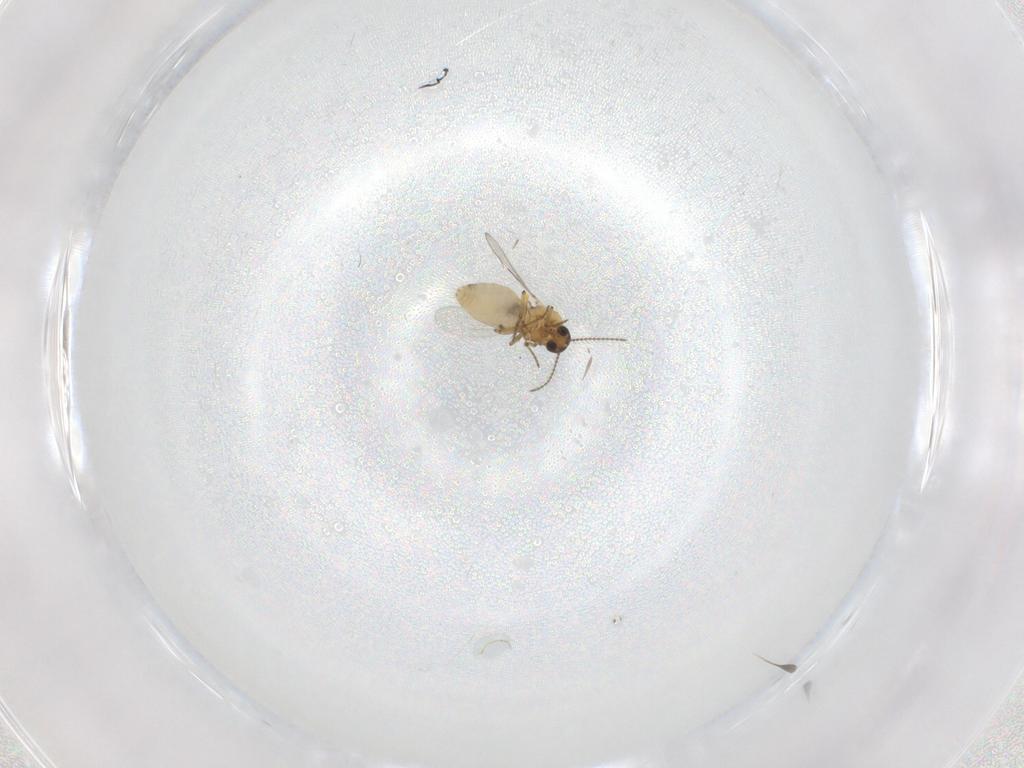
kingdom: Animalia
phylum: Arthropoda
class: Insecta
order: Diptera
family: Sciaridae
